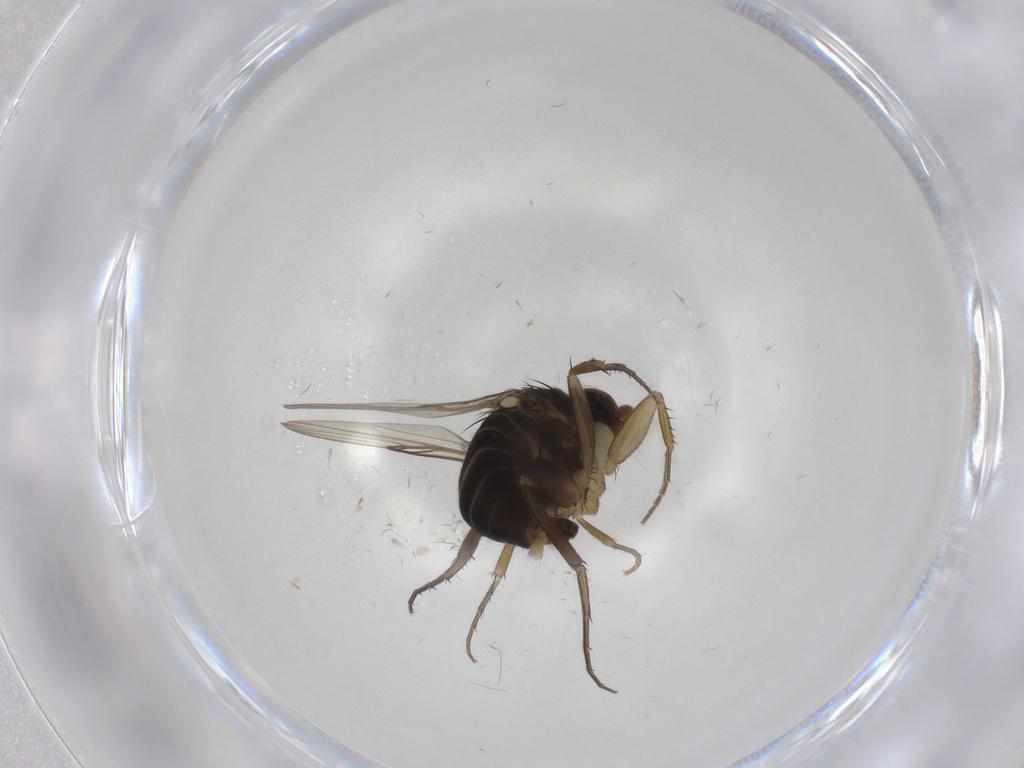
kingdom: Animalia
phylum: Arthropoda
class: Insecta
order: Diptera
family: Phoridae
